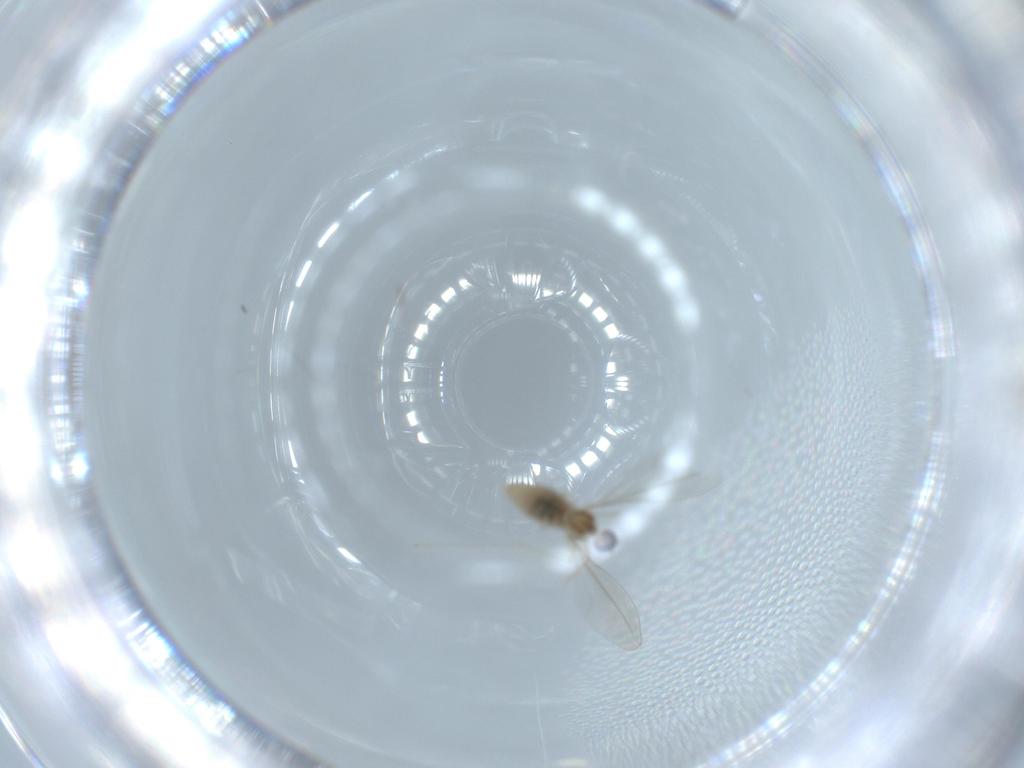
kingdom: Animalia
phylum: Arthropoda
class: Insecta
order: Diptera
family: Cecidomyiidae
